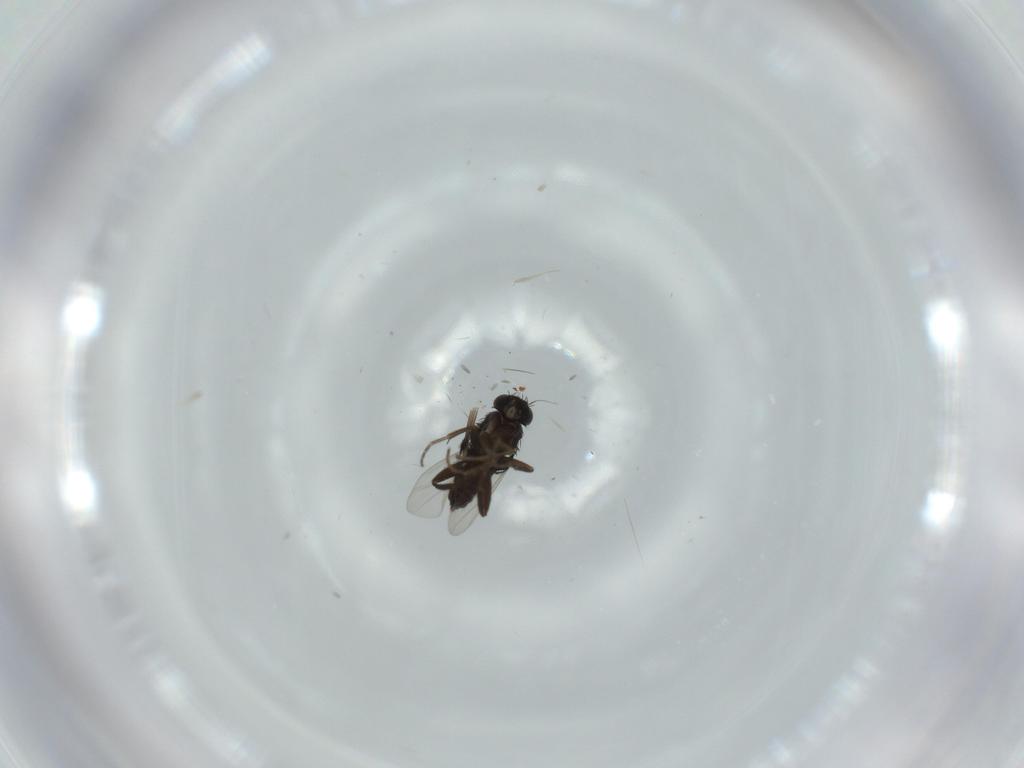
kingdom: Animalia
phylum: Arthropoda
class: Insecta
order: Diptera
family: Phoridae
